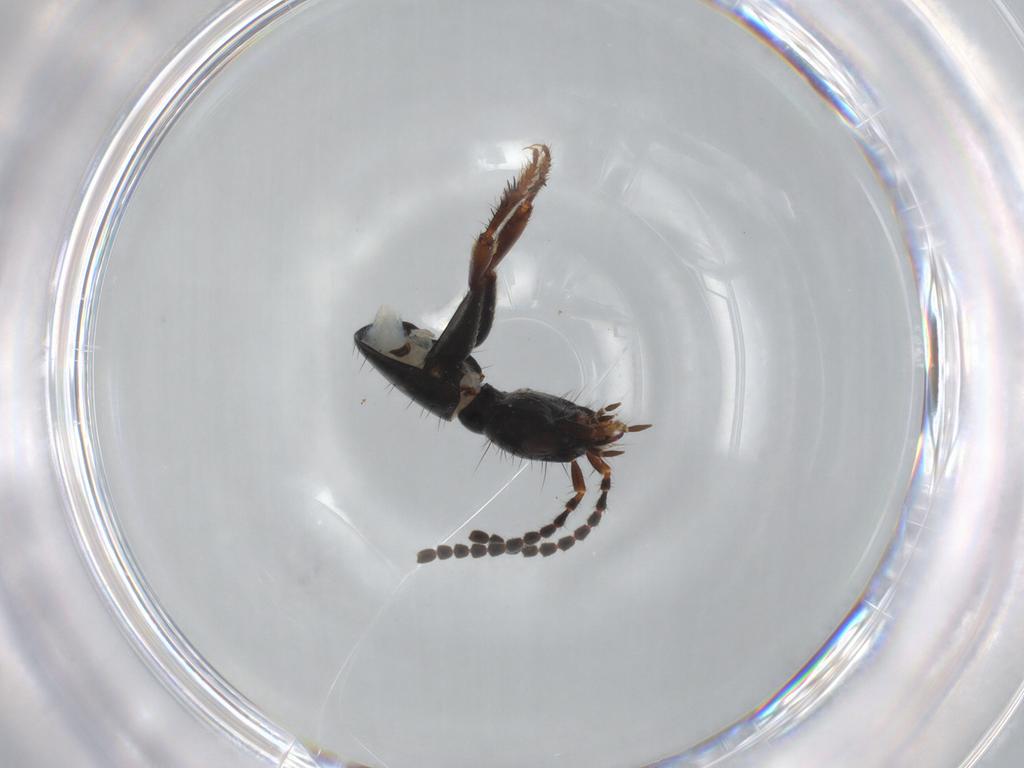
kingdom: Animalia
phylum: Arthropoda
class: Insecta
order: Coleoptera
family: Staphylinidae
